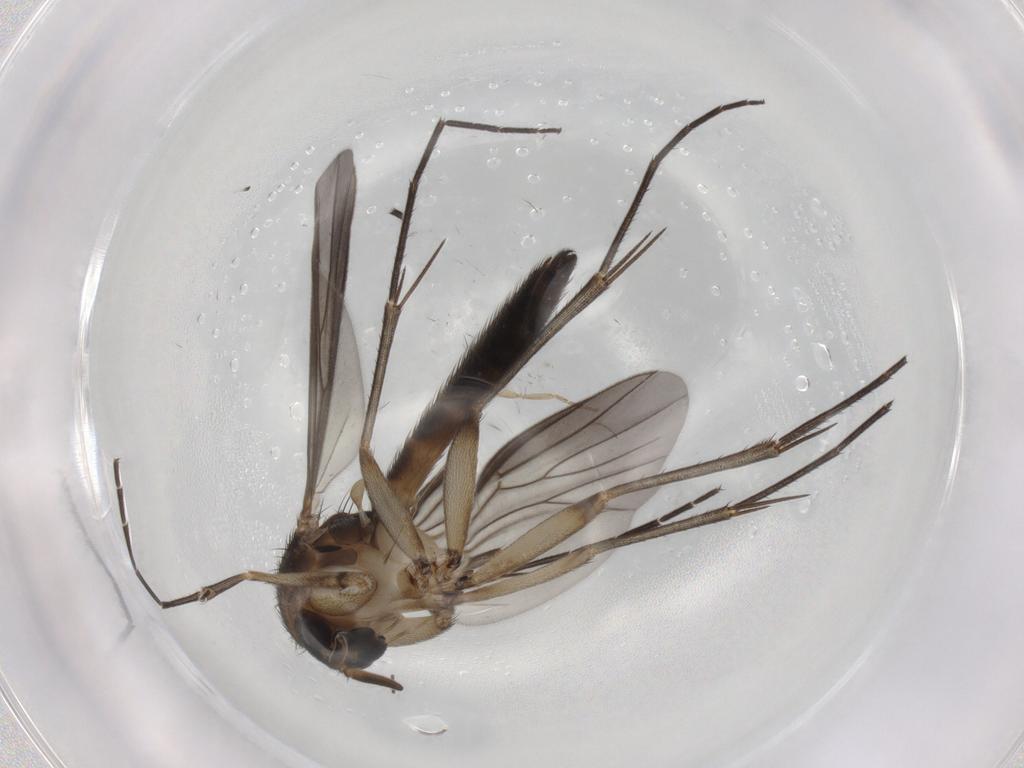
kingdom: Animalia
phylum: Arthropoda
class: Insecta
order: Diptera
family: Mycetophilidae
